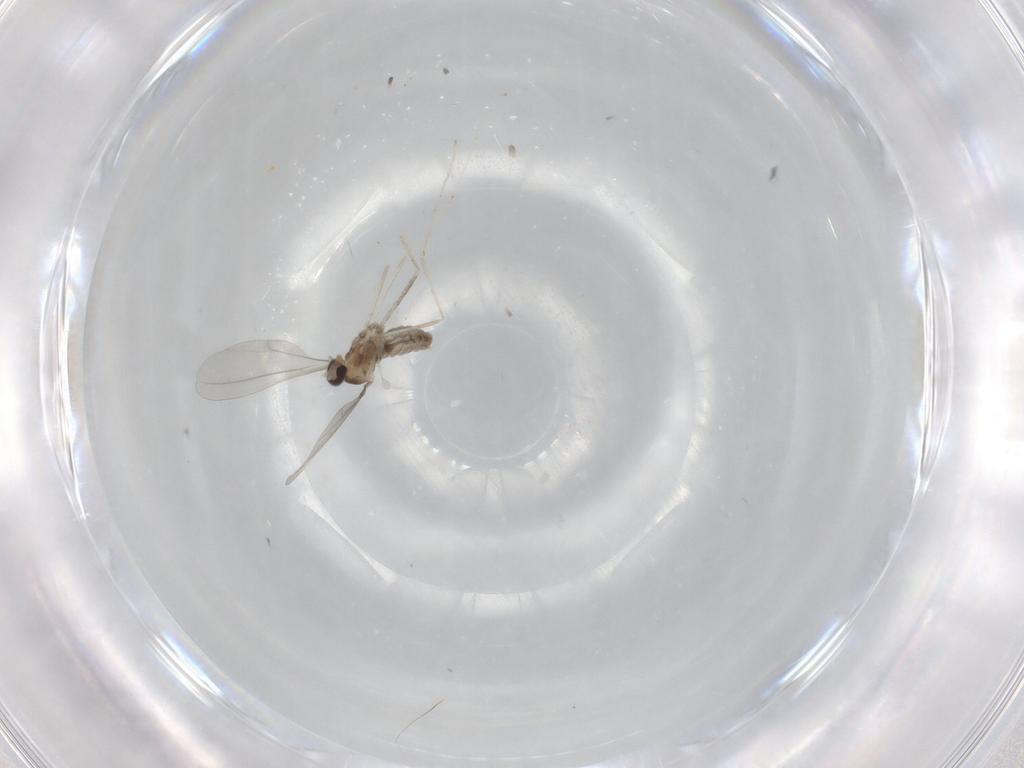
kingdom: Animalia
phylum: Arthropoda
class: Insecta
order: Diptera
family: Cecidomyiidae
